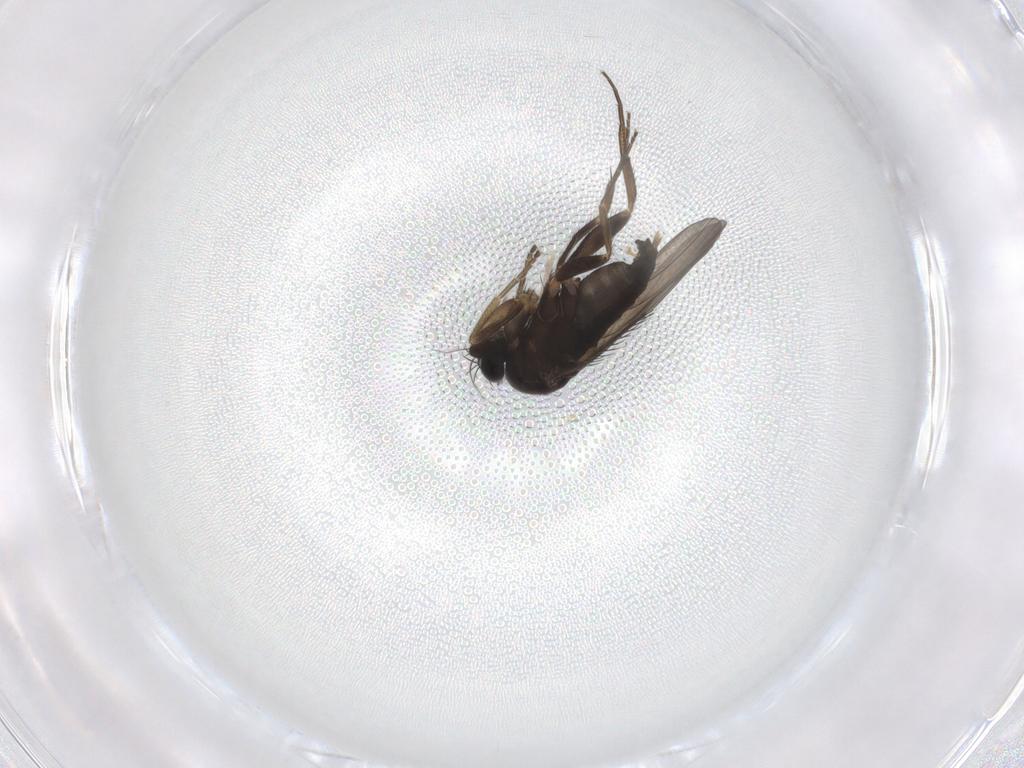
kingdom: Animalia
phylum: Arthropoda
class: Insecta
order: Diptera
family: Phoridae
